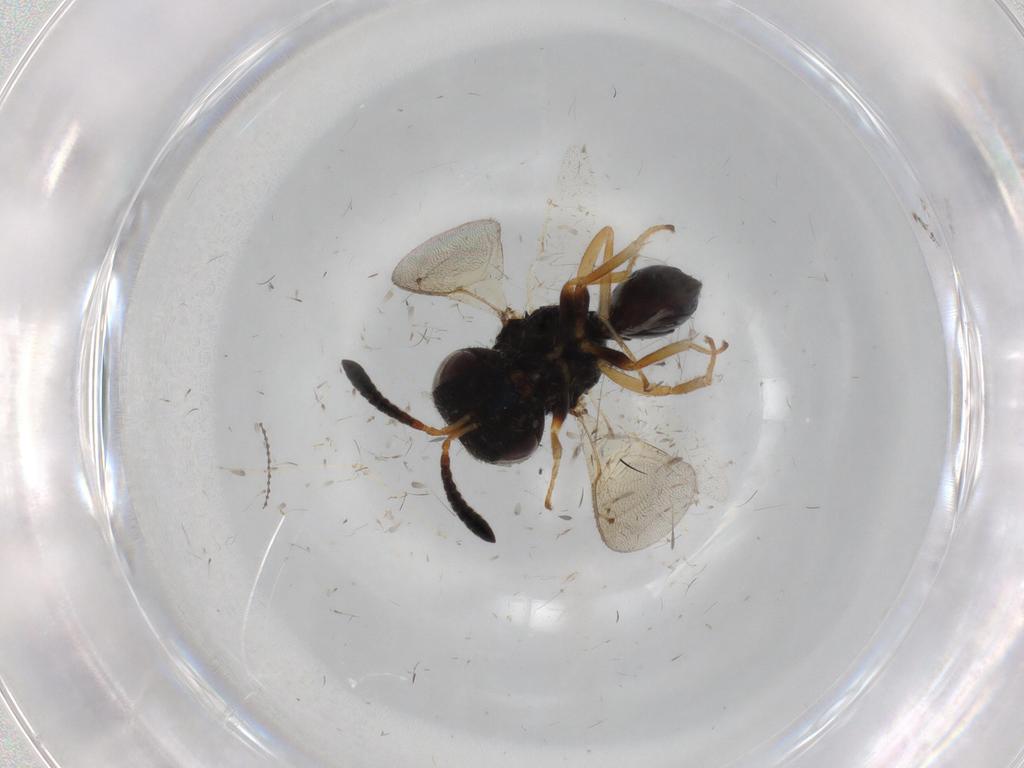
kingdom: Animalia
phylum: Arthropoda
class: Insecta
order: Hymenoptera
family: Pteromalidae
